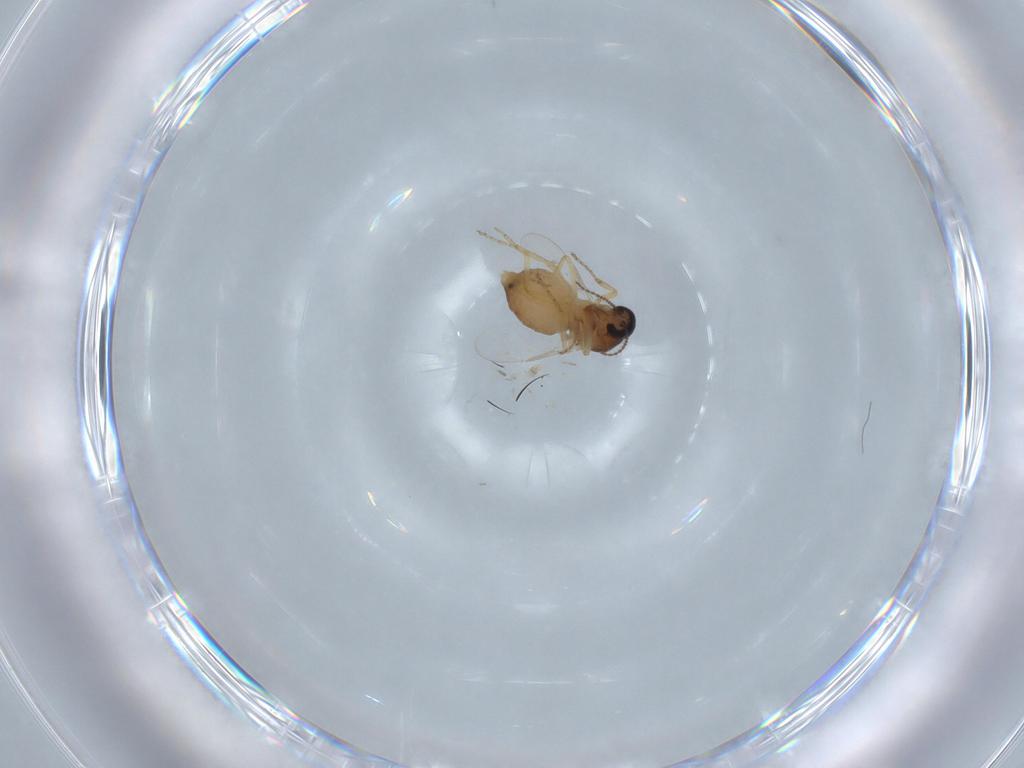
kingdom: Animalia
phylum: Arthropoda
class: Insecta
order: Diptera
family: Ceratopogonidae
